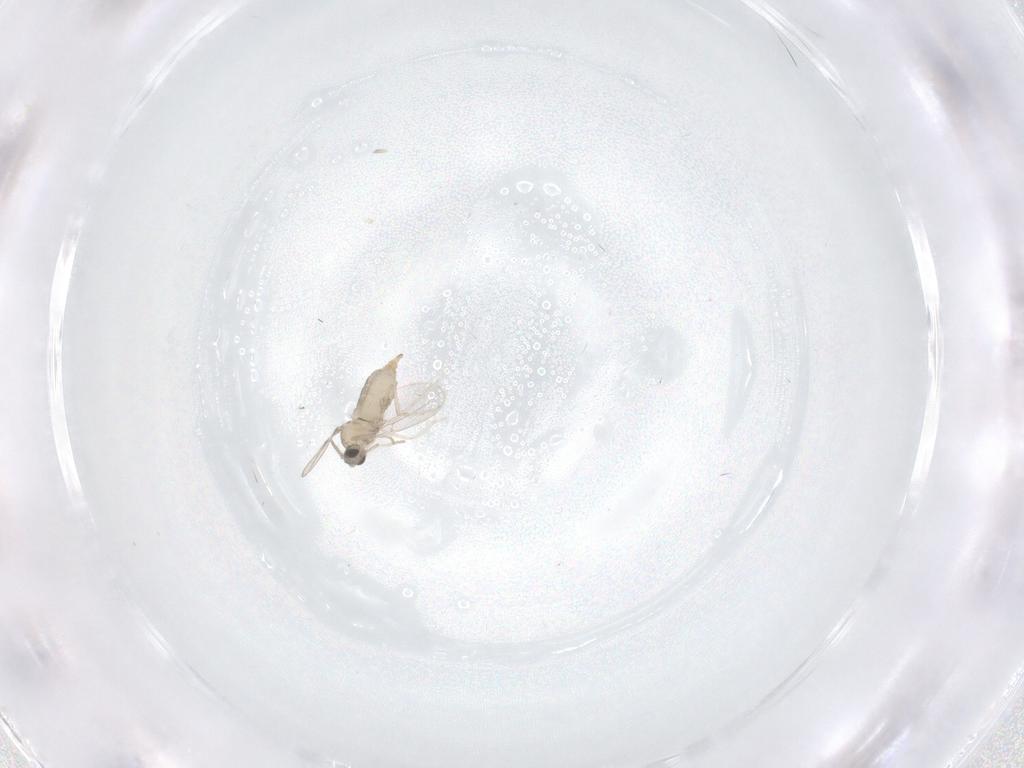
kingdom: Animalia
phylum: Arthropoda
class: Insecta
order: Diptera
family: Cecidomyiidae
